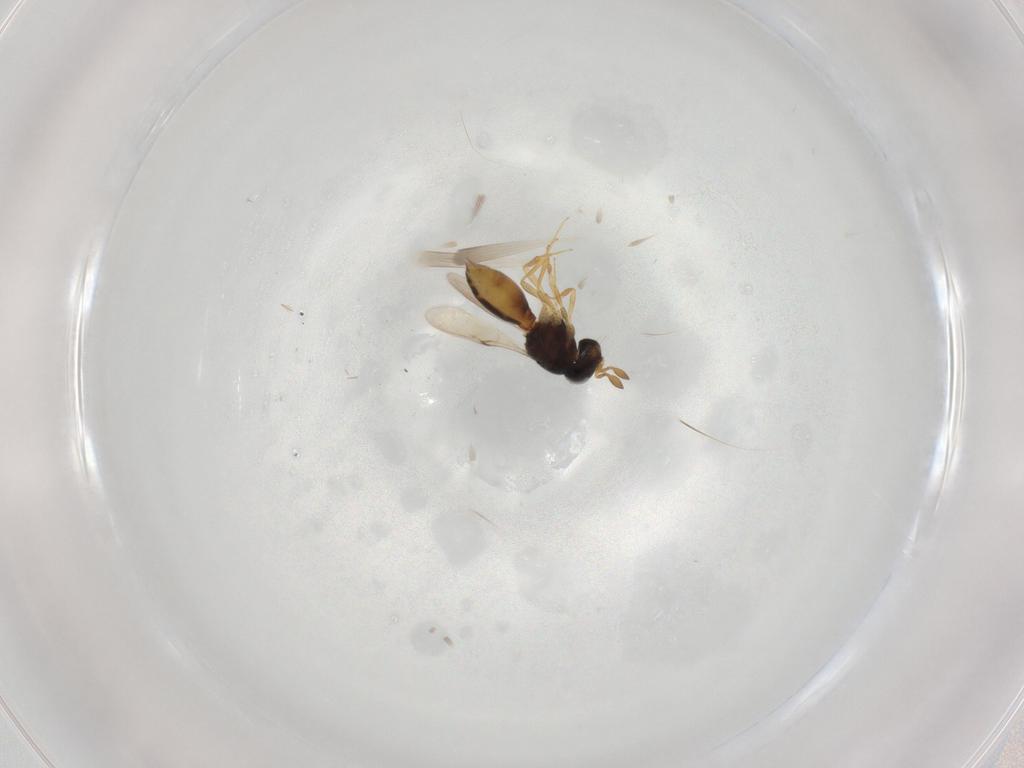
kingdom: Animalia
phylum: Arthropoda
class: Insecta
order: Hymenoptera
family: Scelionidae
